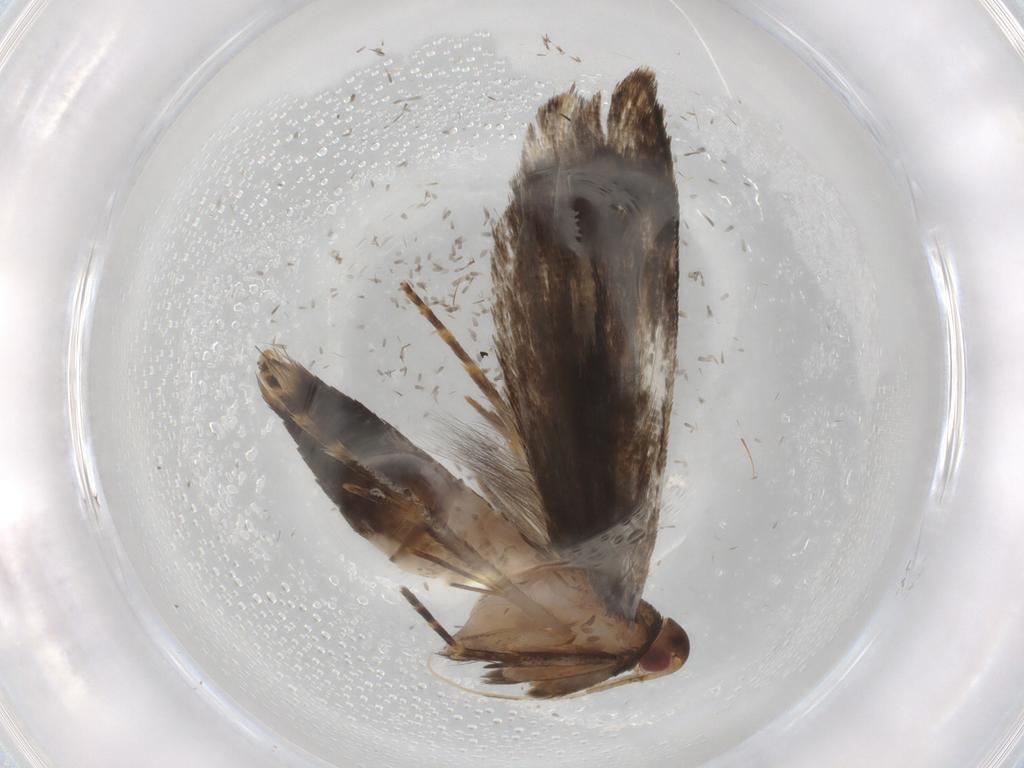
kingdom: Animalia
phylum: Arthropoda
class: Insecta
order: Lepidoptera
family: Gelechiidae
